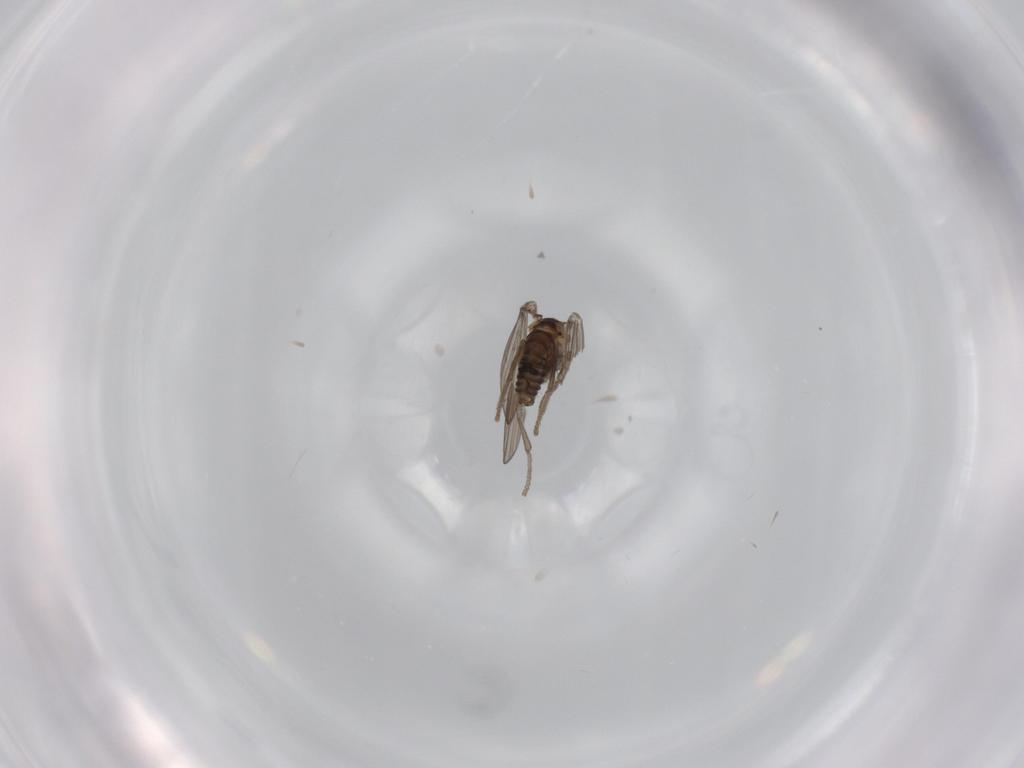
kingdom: Animalia
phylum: Arthropoda
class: Insecta
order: Diptera
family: Psychodidae
